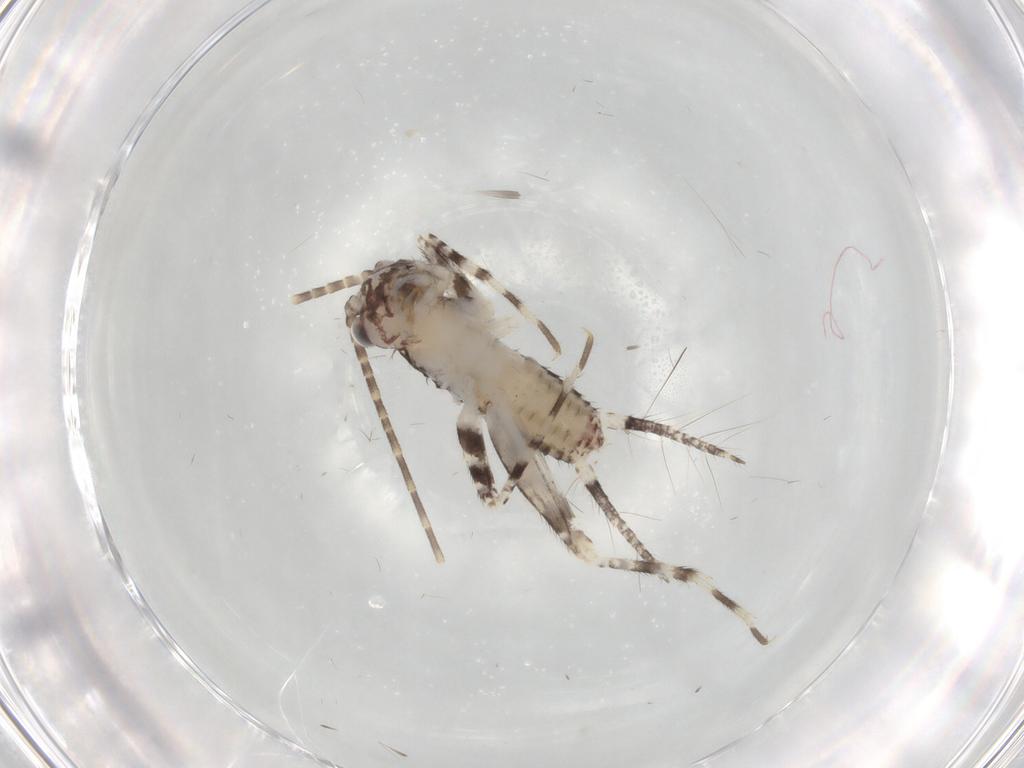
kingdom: Animalia
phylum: Arthropoda
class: Insecta
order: Orthoptera
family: Gryllidae
